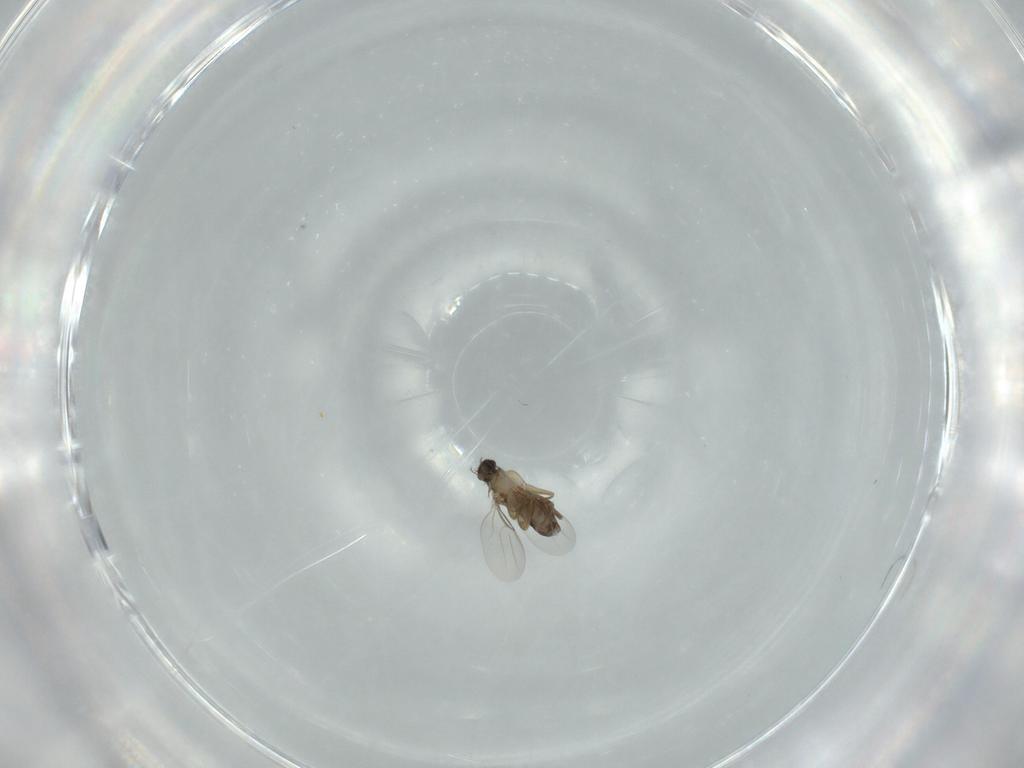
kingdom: Animalia
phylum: Arthropoda
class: Insecta
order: Diptera
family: Phoridae
